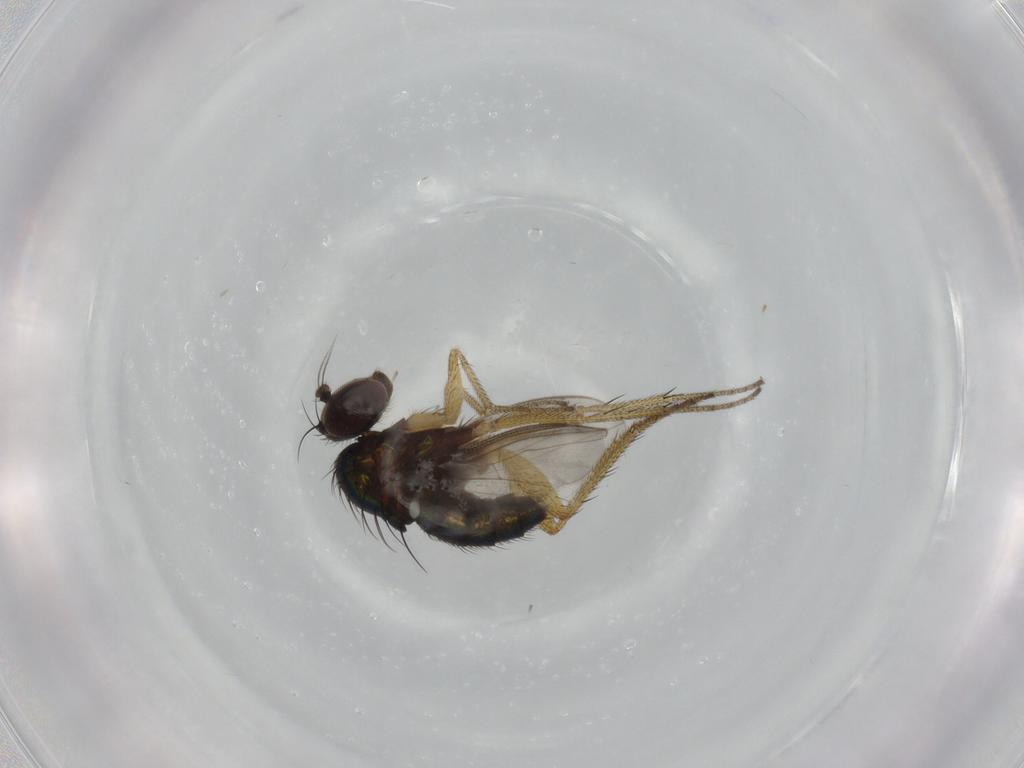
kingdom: Animalia
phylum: Arthropoda
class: Insecta
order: Diptera
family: Dolichopodidae
